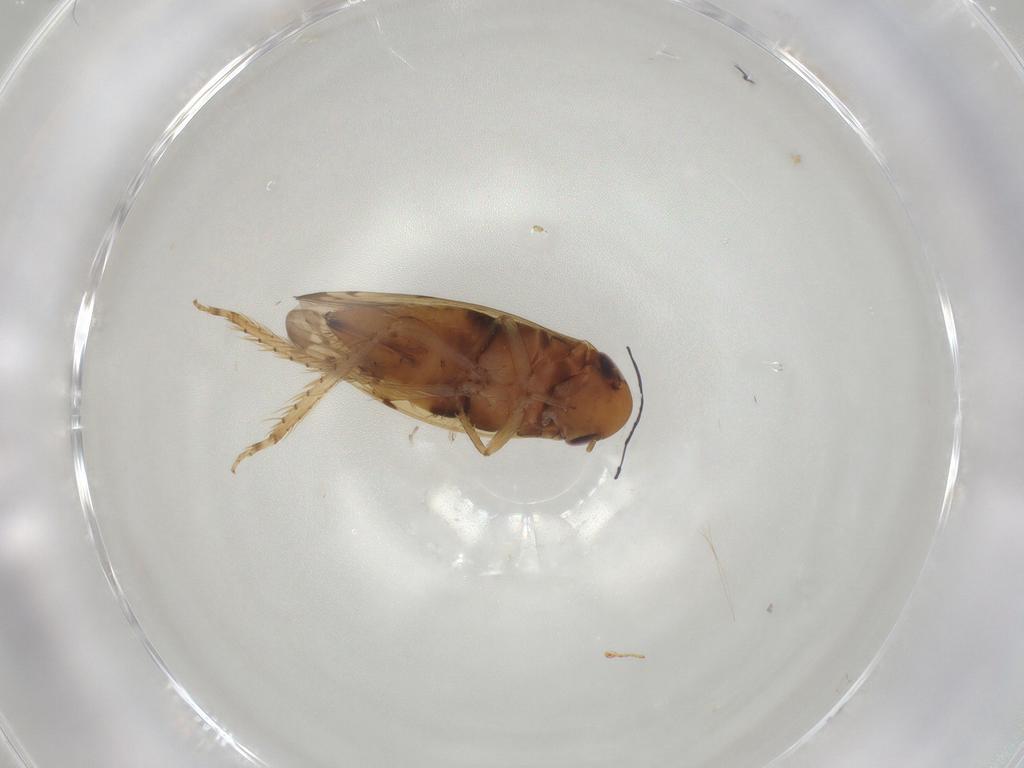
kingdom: Animalia
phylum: Arthropoda
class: Insecta
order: Hemiptera
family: Cicadellidae
